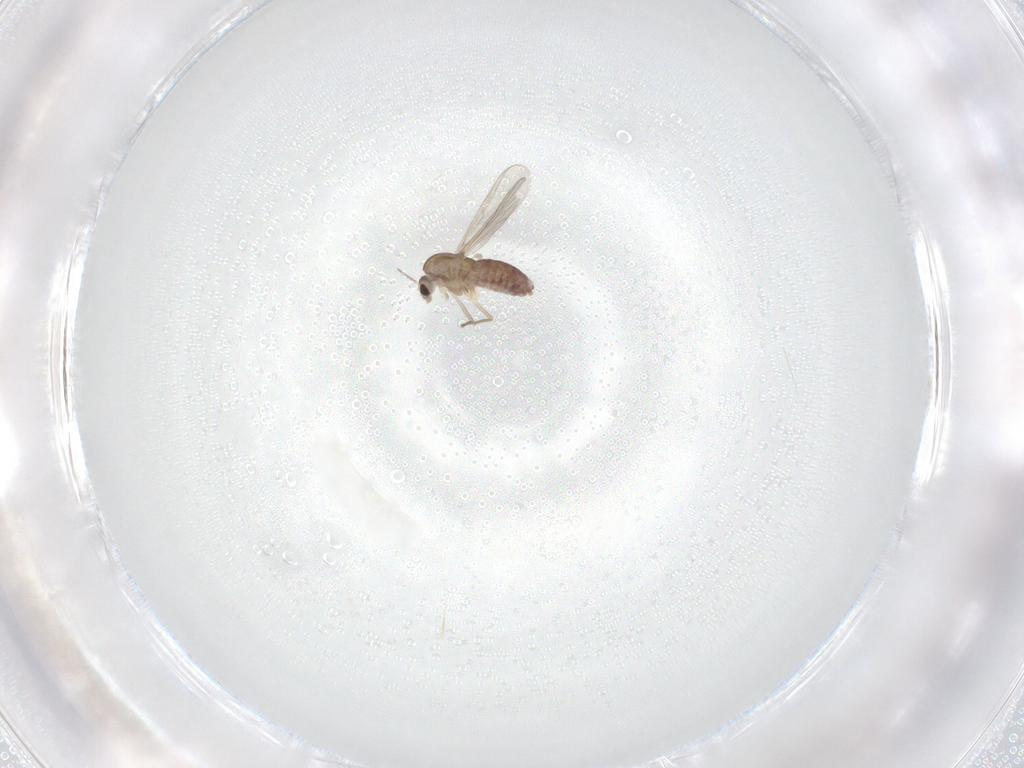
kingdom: Animalia
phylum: Arthropoda
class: Insecta
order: Diptera
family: Chironomidae
